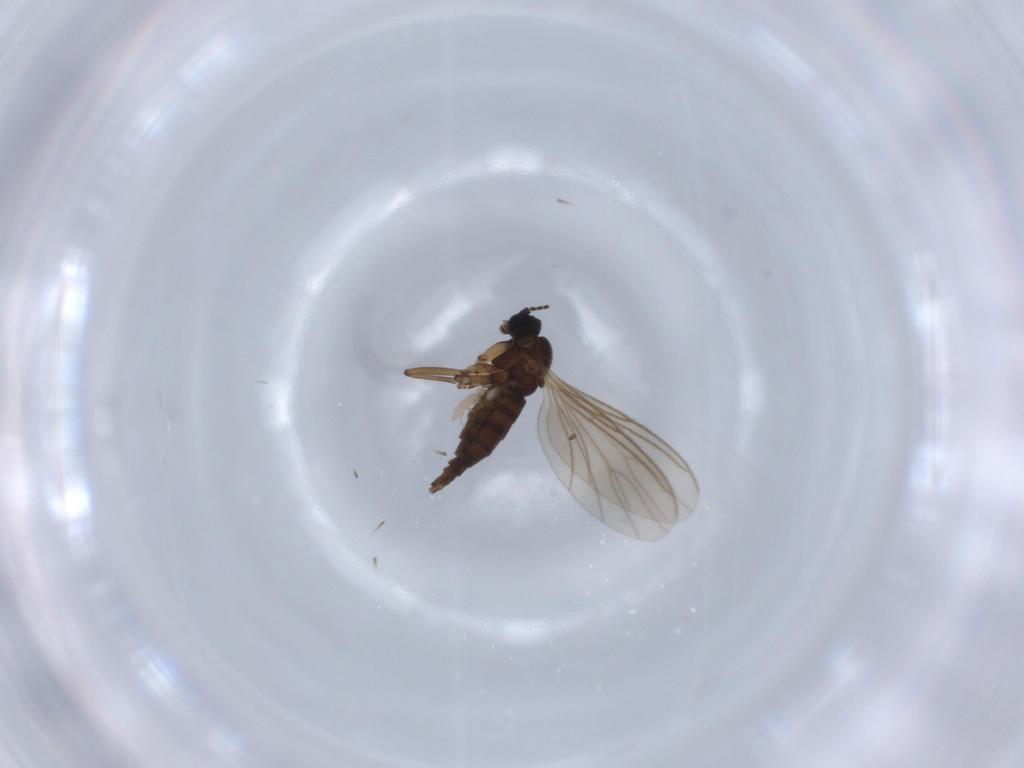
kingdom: Animalia
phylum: Arthropoda
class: Insecta
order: Diptera
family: Sciaridae
